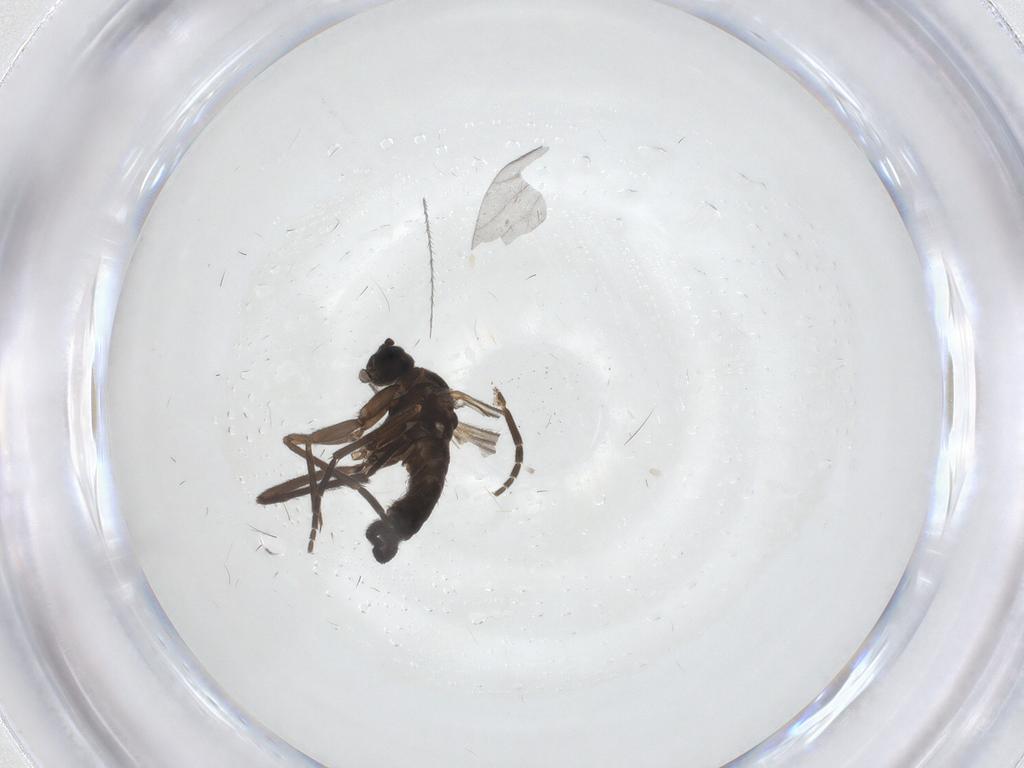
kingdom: Animalia
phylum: Arthropoda
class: Insecta
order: Diptera
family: Sciaridae
